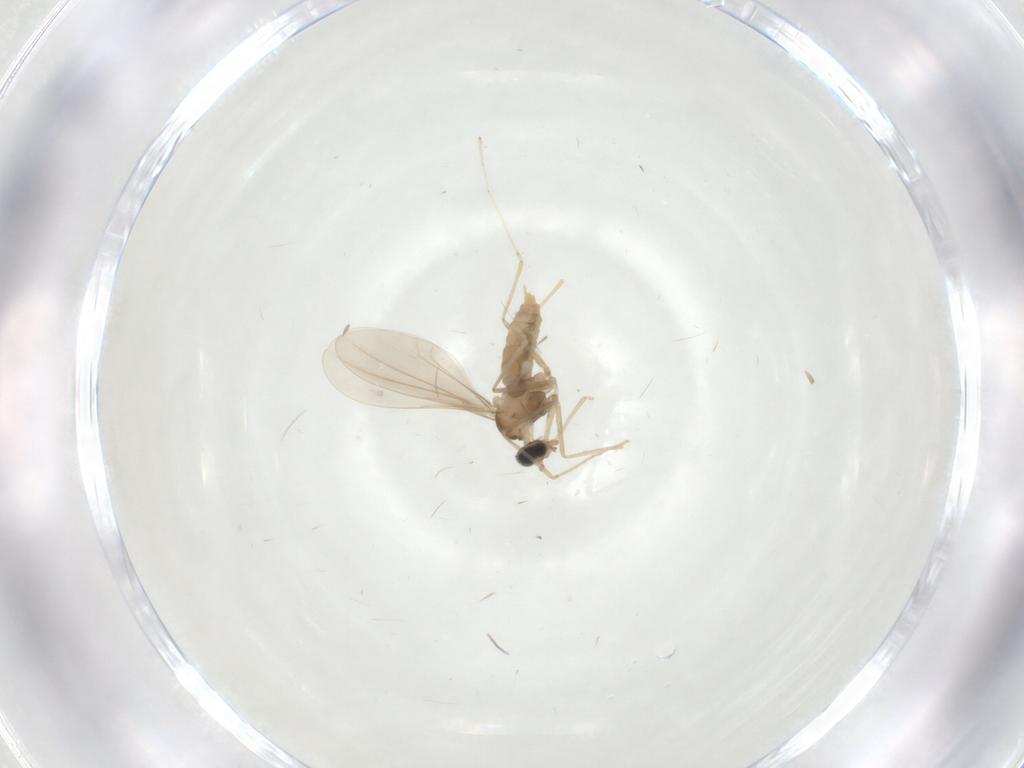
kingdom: Animalia
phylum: Arthropoda
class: Insecta
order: Diptera
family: Cecidomyiidae
